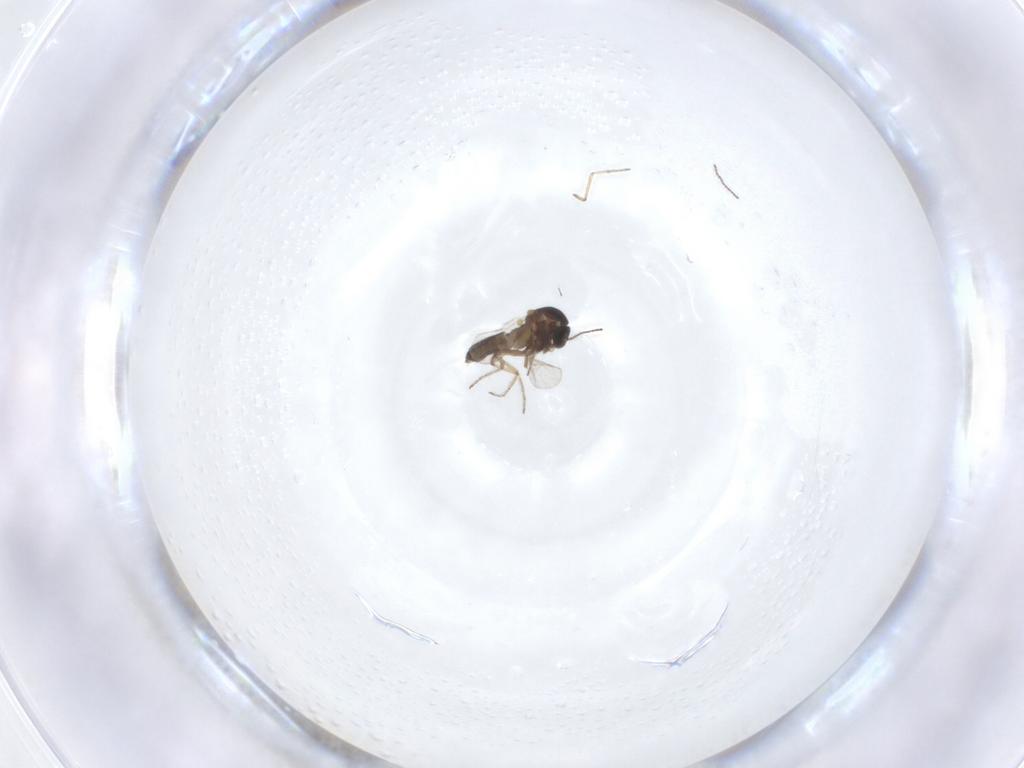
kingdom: Animalia
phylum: Arthropoda
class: Insecta
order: Diptera
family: Ceratopogonidae
